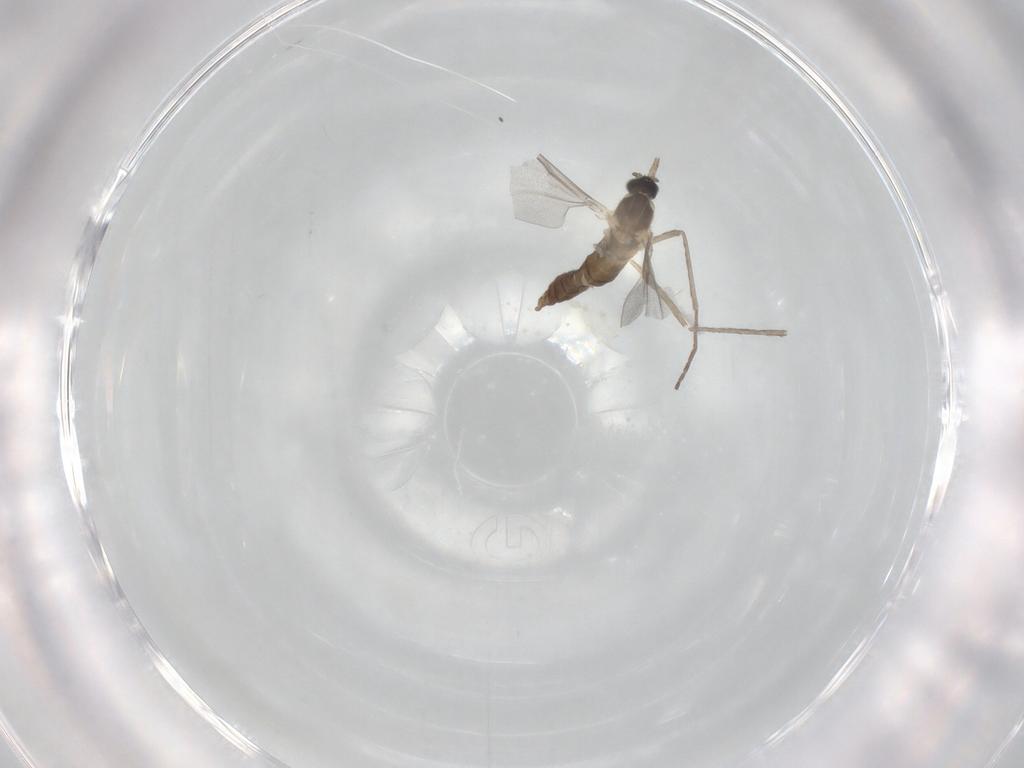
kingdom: Animalia
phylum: Arthropoda
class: Insecta
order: Diptera
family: Cecidomyiidae
